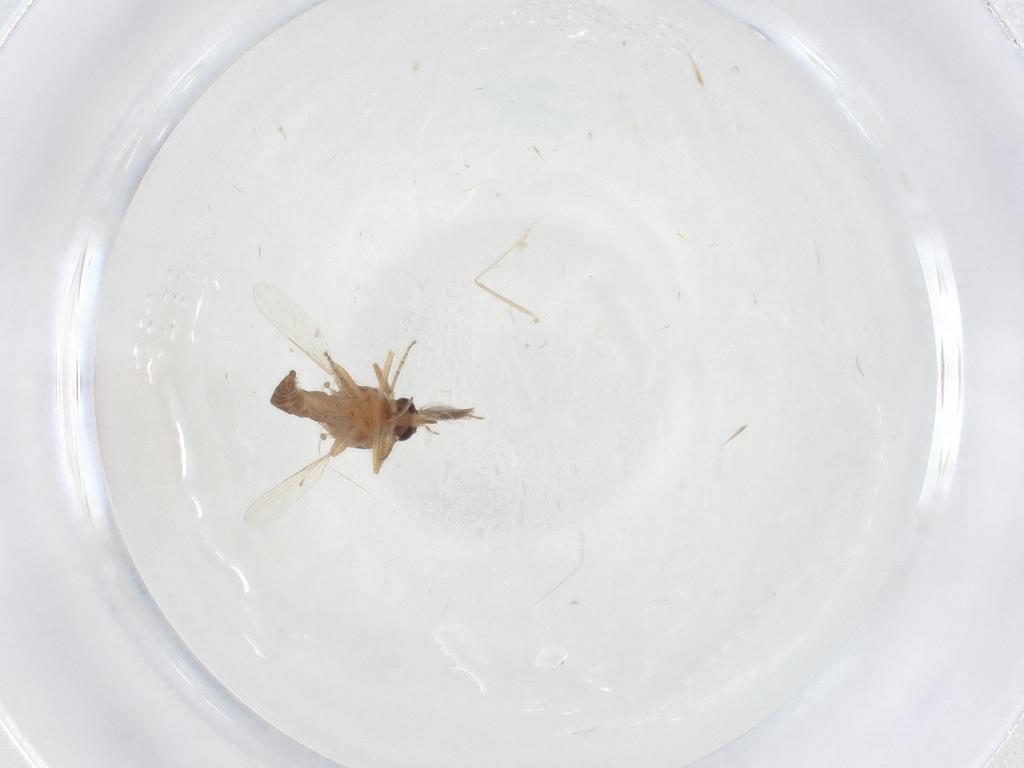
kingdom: Animalia
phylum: Arthropoda
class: Insecta
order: Diptera
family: Ceratopogonidae
